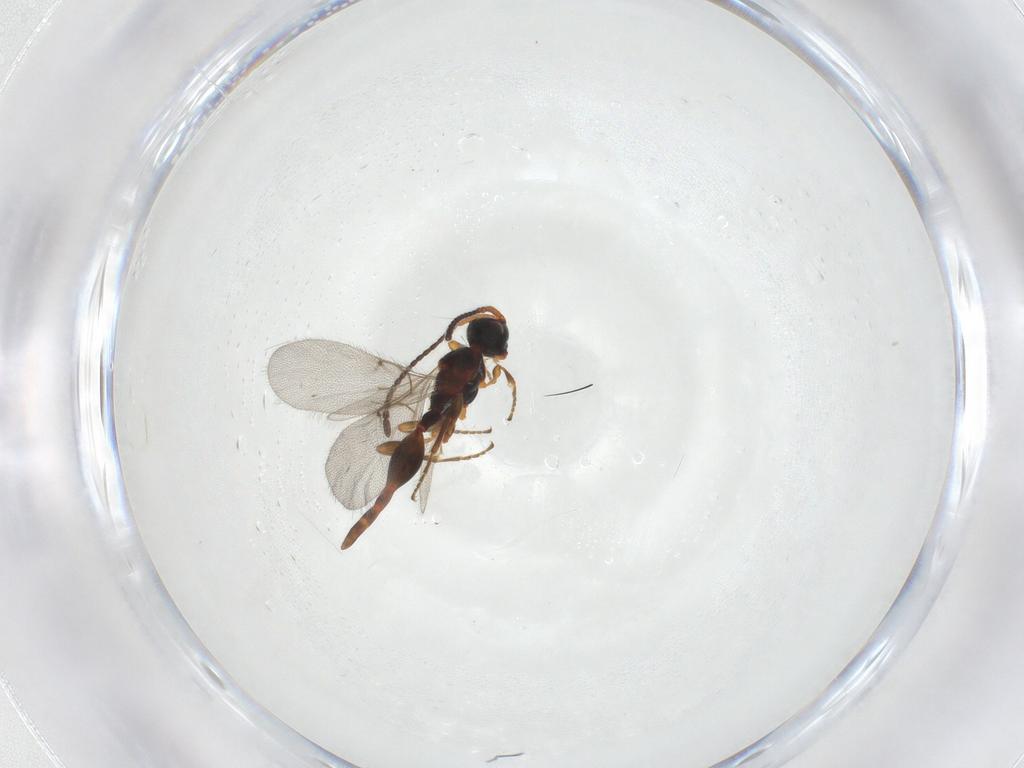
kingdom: Animalia
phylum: Arthropoda
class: Insecta
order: Hymenoptera
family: Diapriidae
